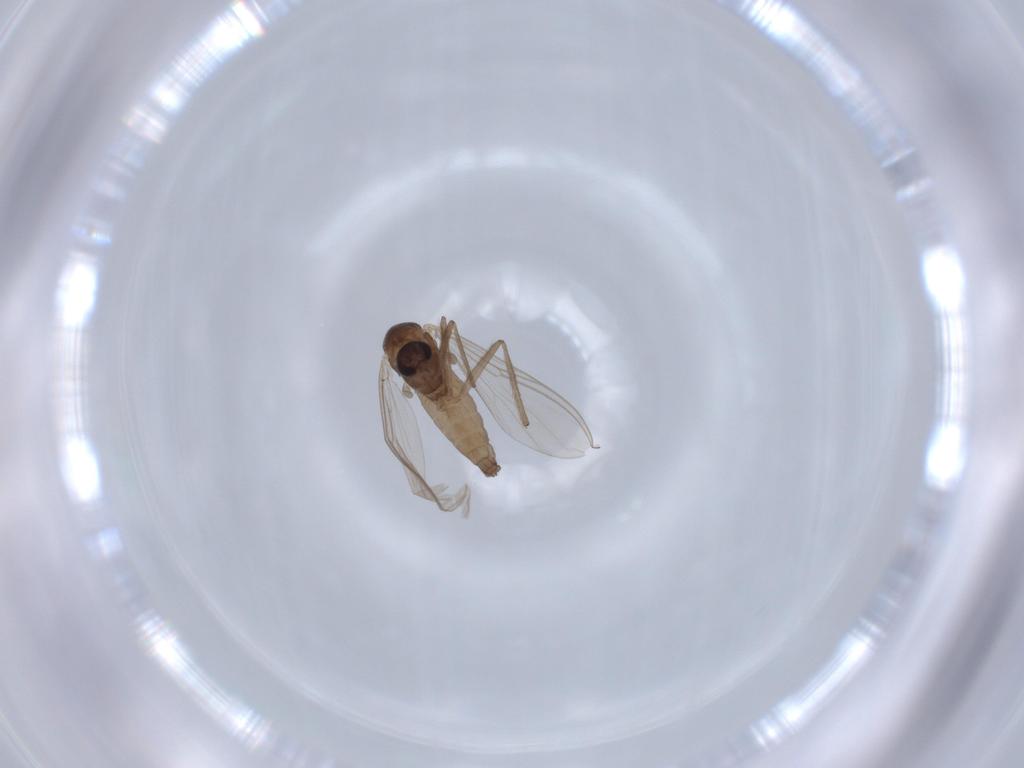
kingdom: Animalia
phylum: Arthropoda
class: Insecta
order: Diptera
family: Chironomidae
